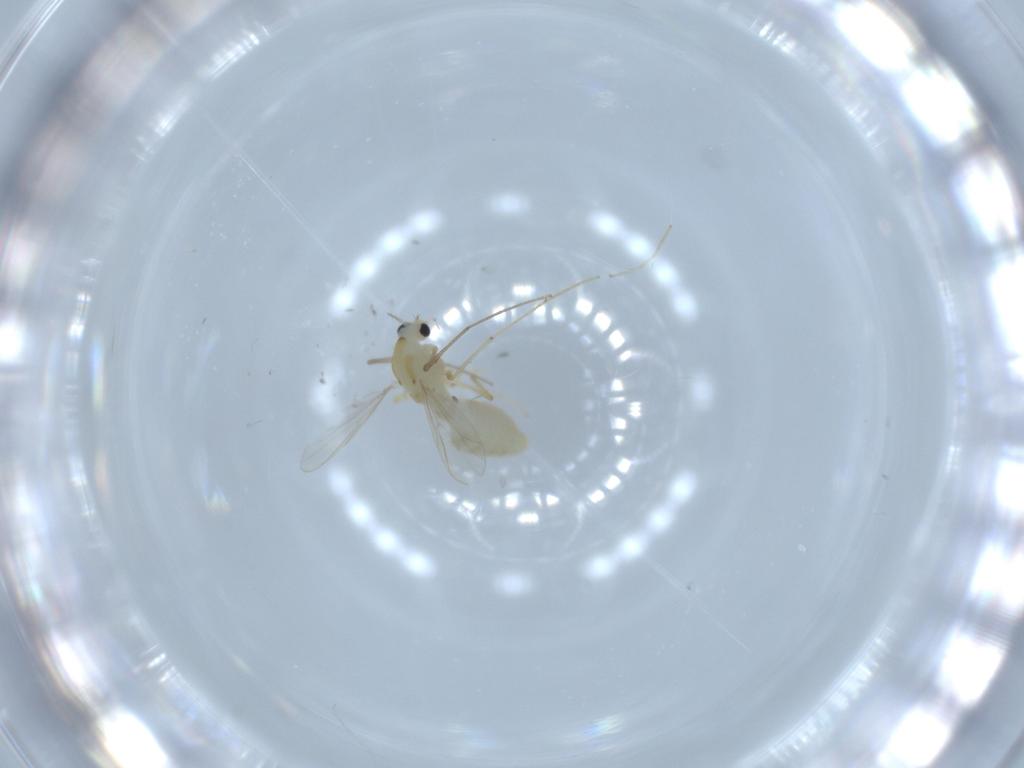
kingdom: Animalia
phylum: Arthropoda
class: Insecta
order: Diptera
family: Chironomidae
